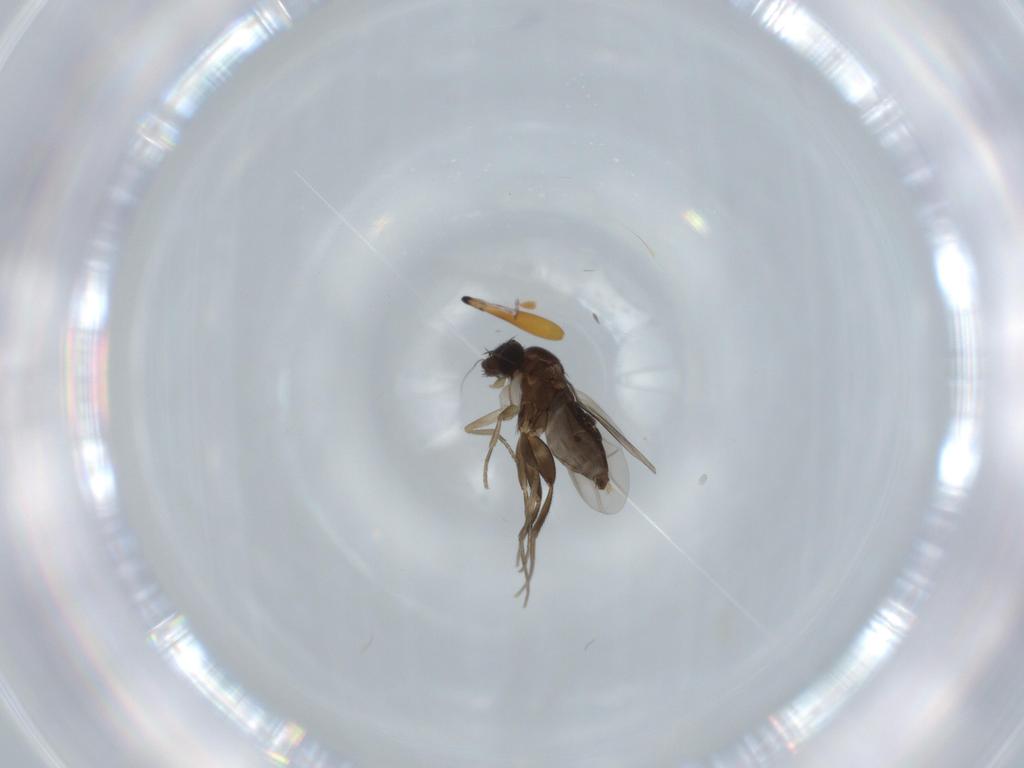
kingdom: Animalia
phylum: Arthropoda
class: Insecta
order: Diptera
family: Phoridae
